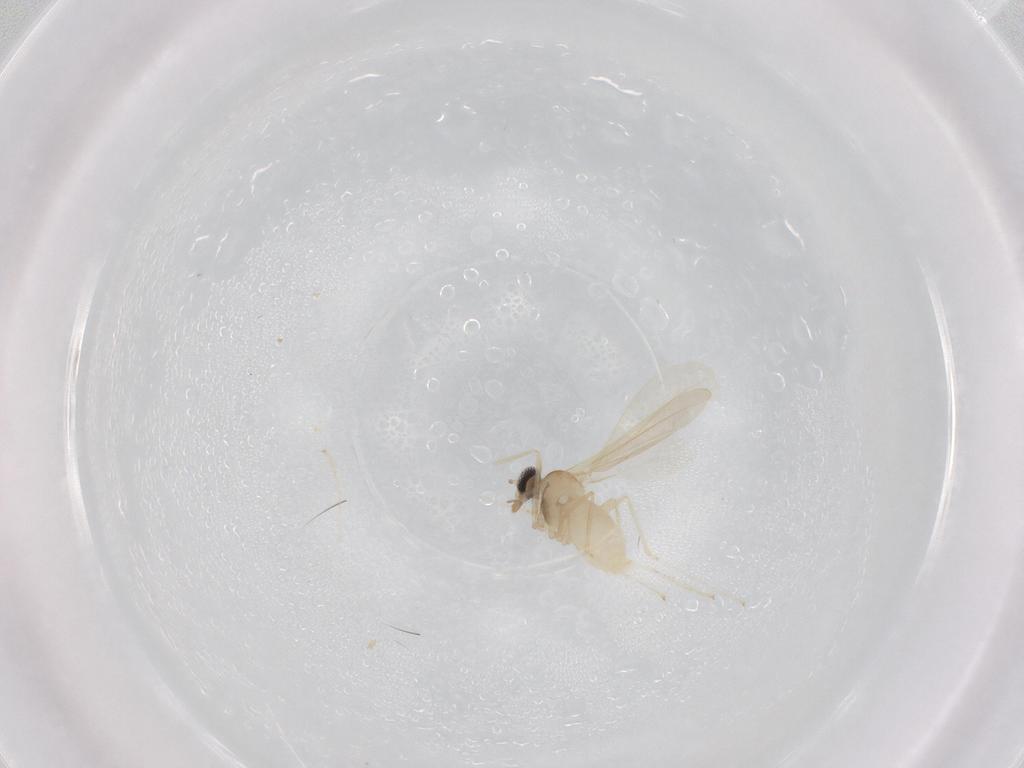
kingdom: Animalia
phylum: Arthropoda
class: Insecta
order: Diptera
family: Cecidomyiidae
